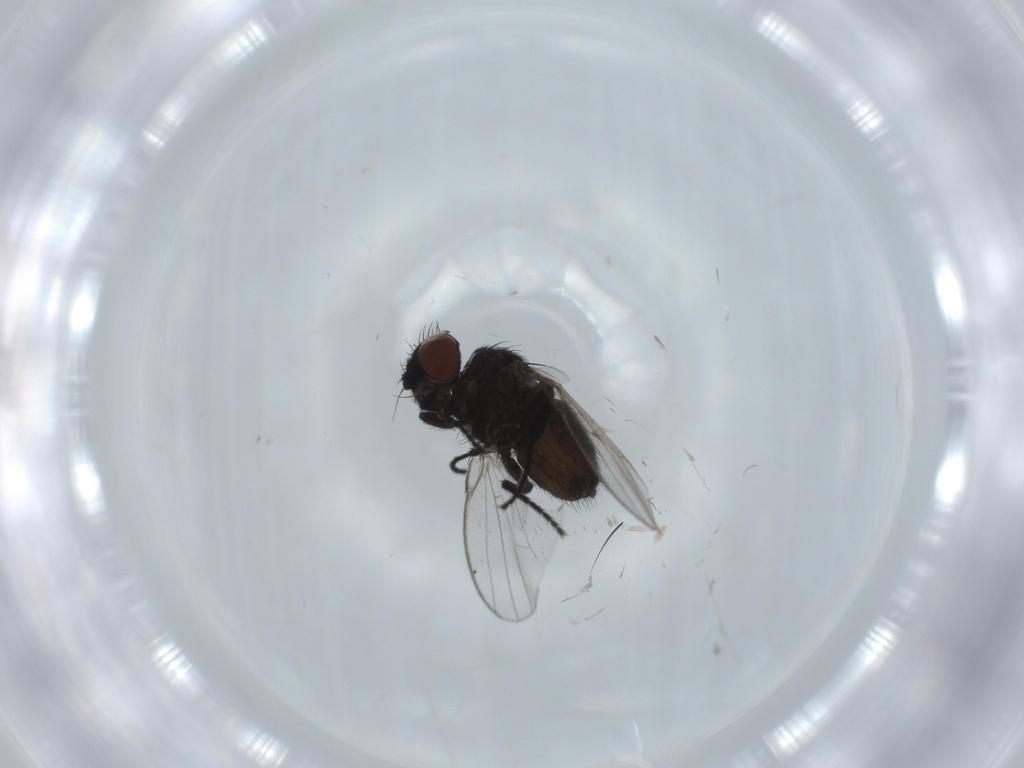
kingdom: Animalia
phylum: Arthropoda
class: Insecta
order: Diptera
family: Milichiidae
